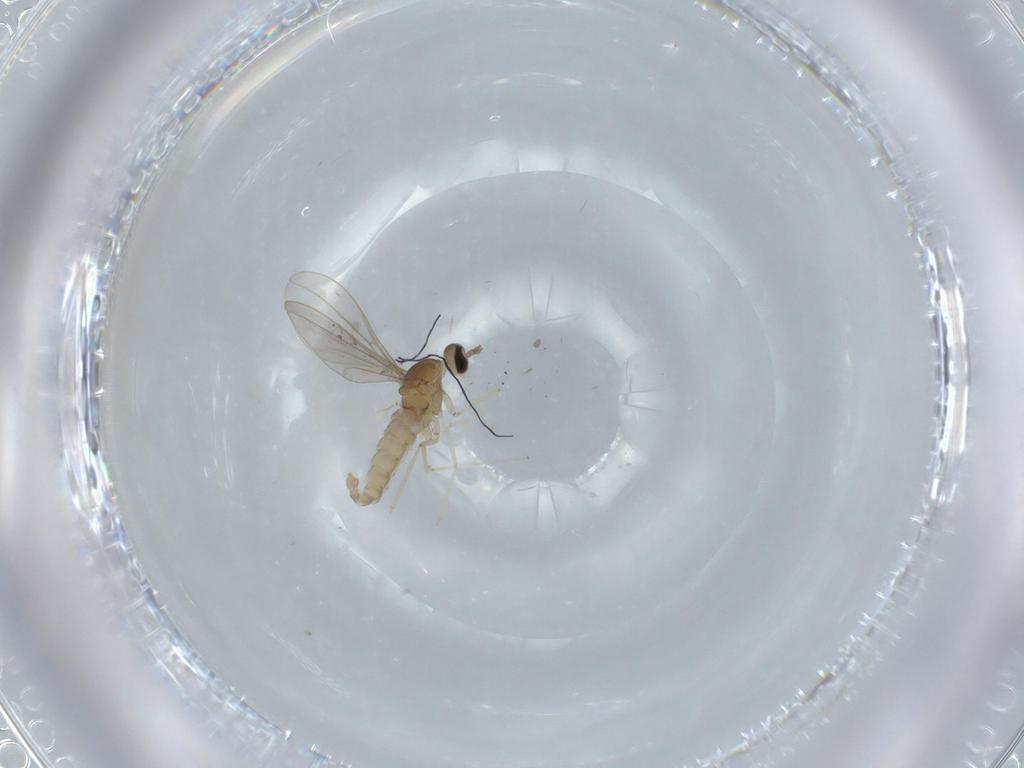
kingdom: Animalia
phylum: Arthropoda
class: Insecta
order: Diptera
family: Cecidomyiidae
